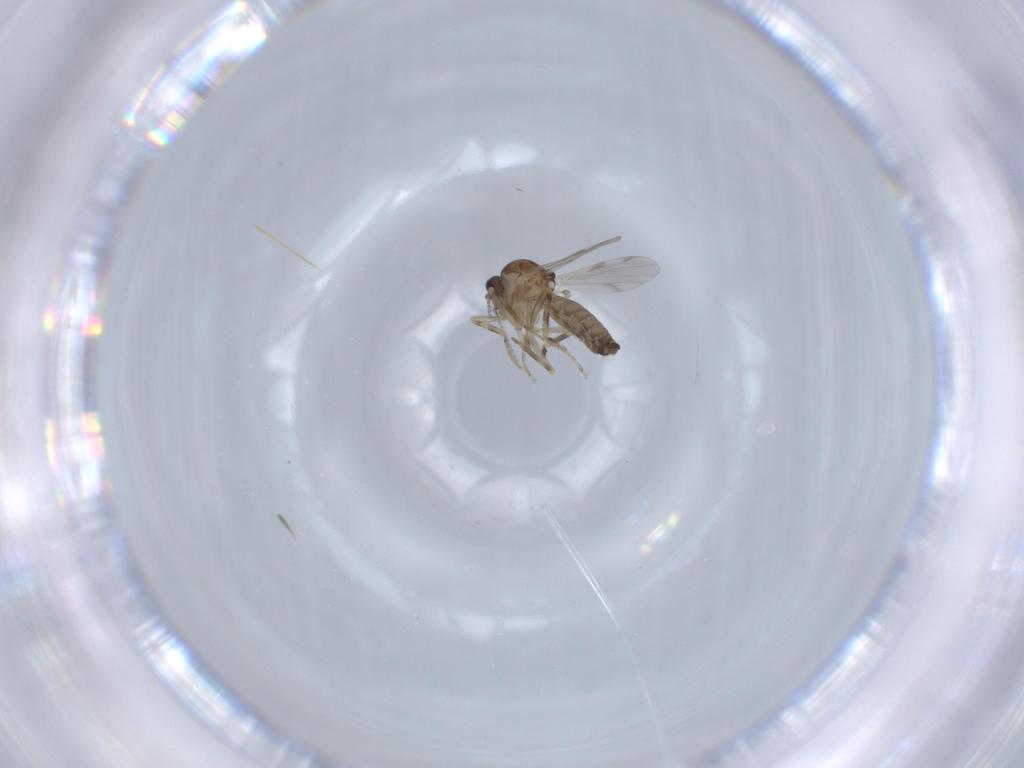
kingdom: Animalia
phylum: Arthropoda
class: Insecta
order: Diptera
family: Ceratopogonidae
